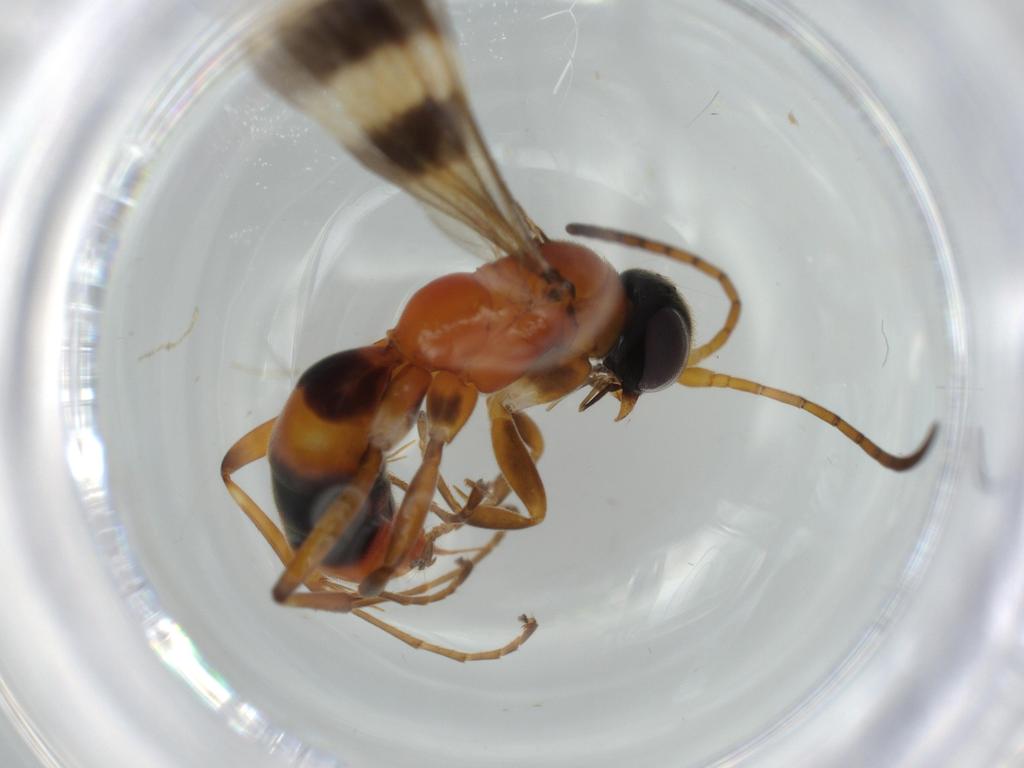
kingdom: Animalia
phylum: Arthropoda
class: Insecta
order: Hymenoptera
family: Pompilidae
